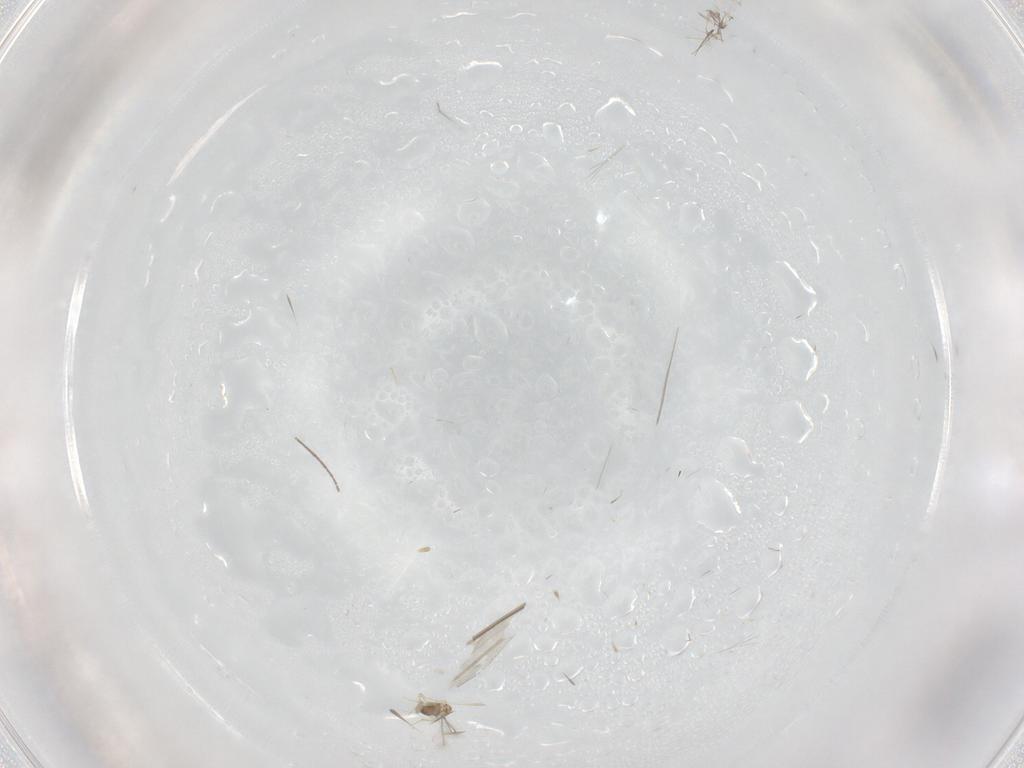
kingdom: Animalia
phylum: Arthropoda
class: Insecta
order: Diptera
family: Cecidomyiidae
